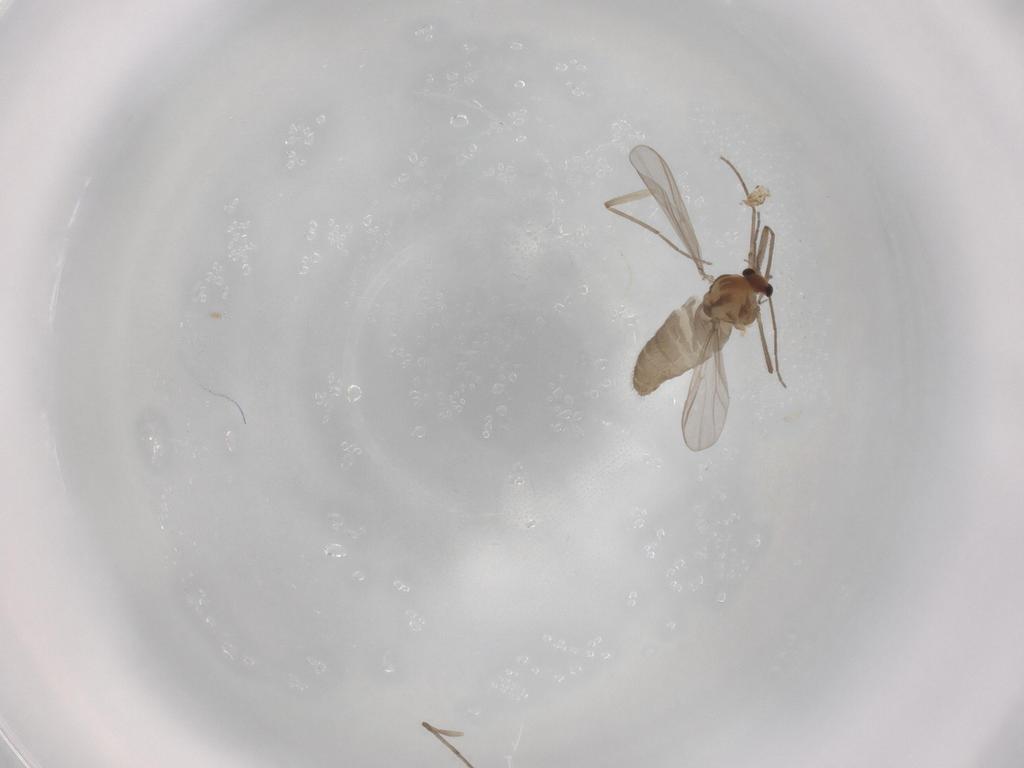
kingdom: Animalia
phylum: Arthropoda
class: Insecta
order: Diptera
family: Chironomidae
